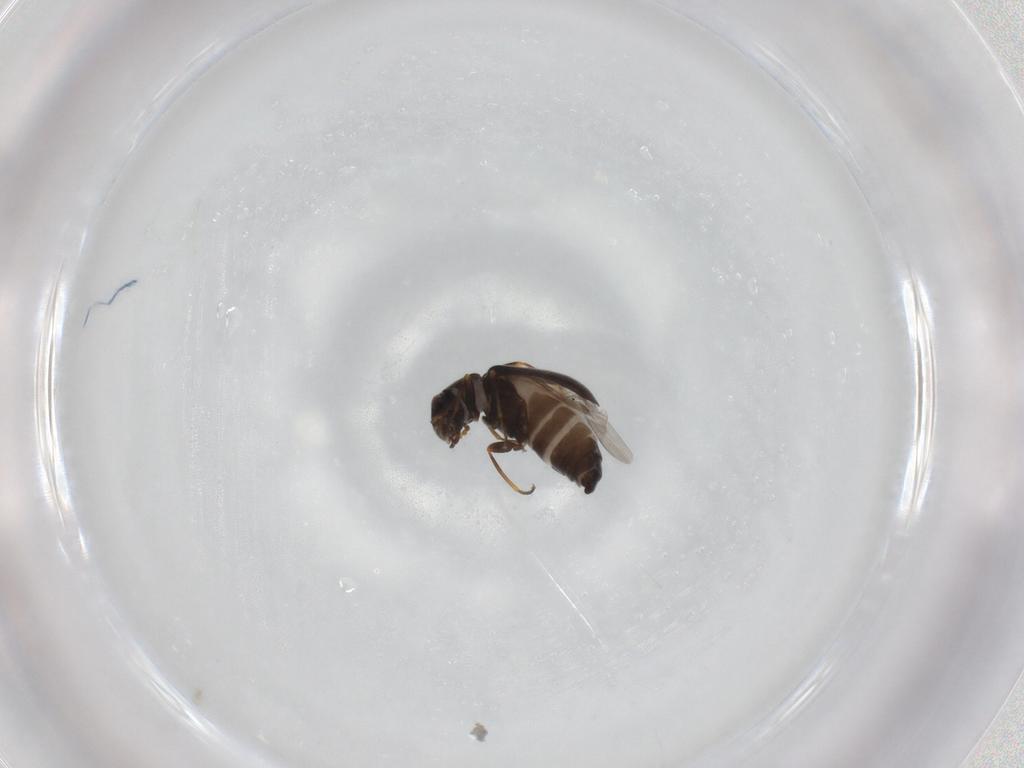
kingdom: Animalia
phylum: Arthropoda
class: Insecta
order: Coleoptera
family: Melyridae
